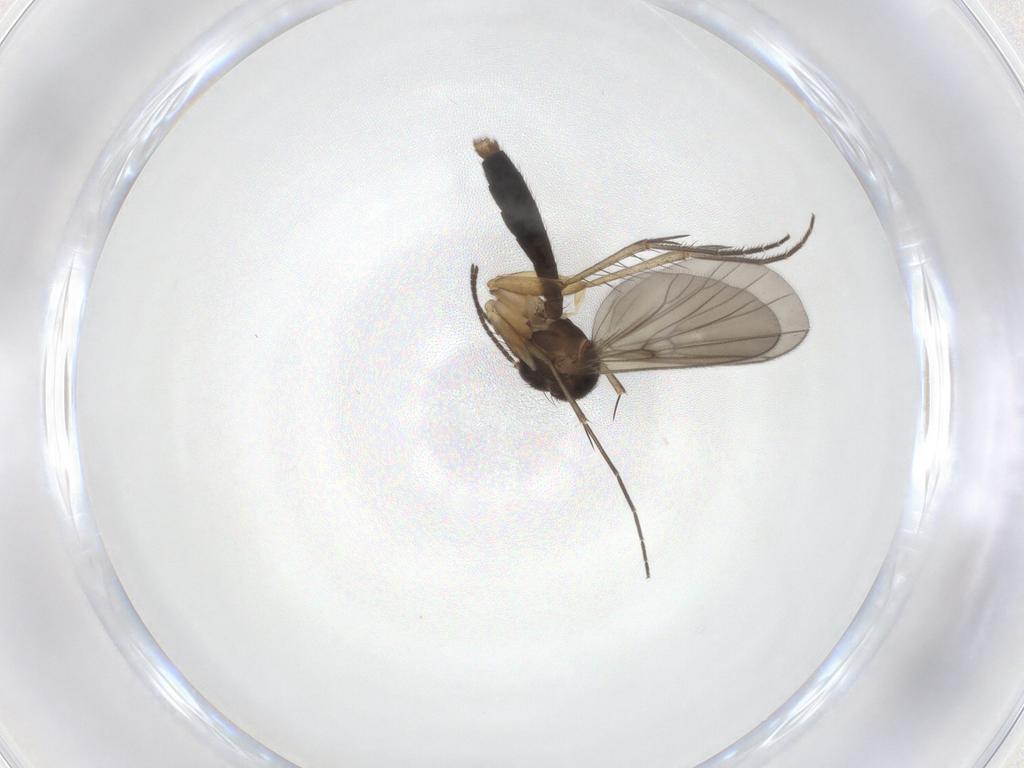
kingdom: Animalia
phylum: Arthropoda
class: Insecta
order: Diptera
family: Mycetophilidae
